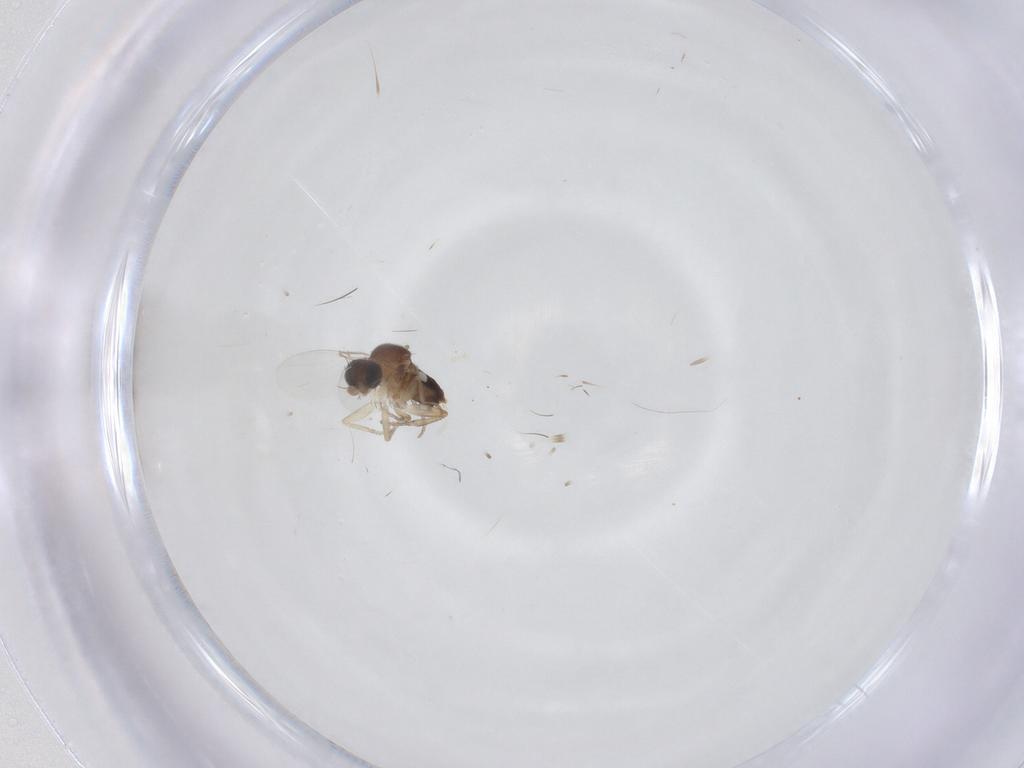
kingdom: Animalia
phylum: Arthropoda
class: Insecta
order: Diptera
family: Phoridae
